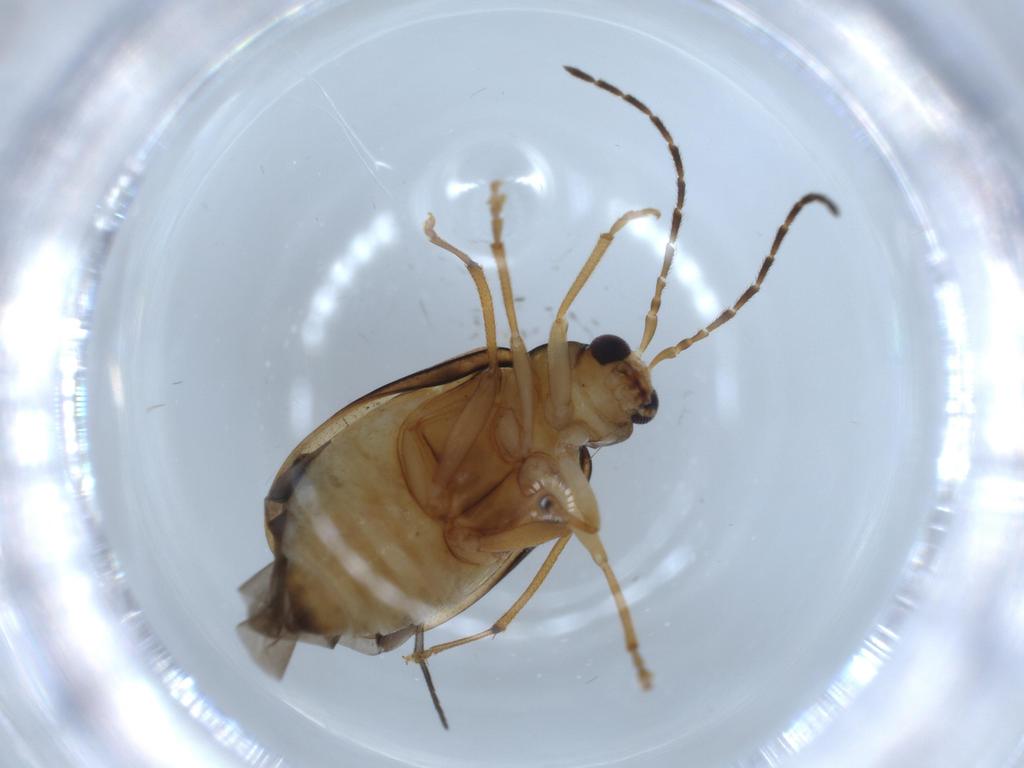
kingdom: Animalia
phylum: Arthropoda
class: Insecta
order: Coleoptera
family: Chrysomelidae
